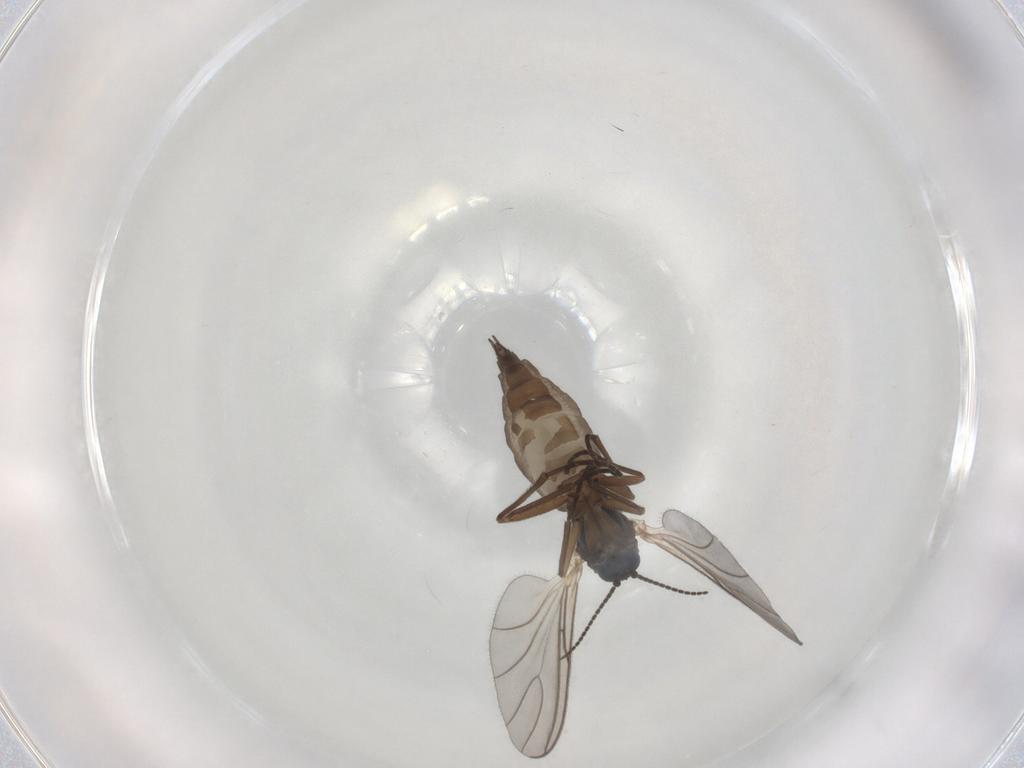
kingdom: Animalia
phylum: Arthropoda
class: Insecta
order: Diptera
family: Sciaridae
